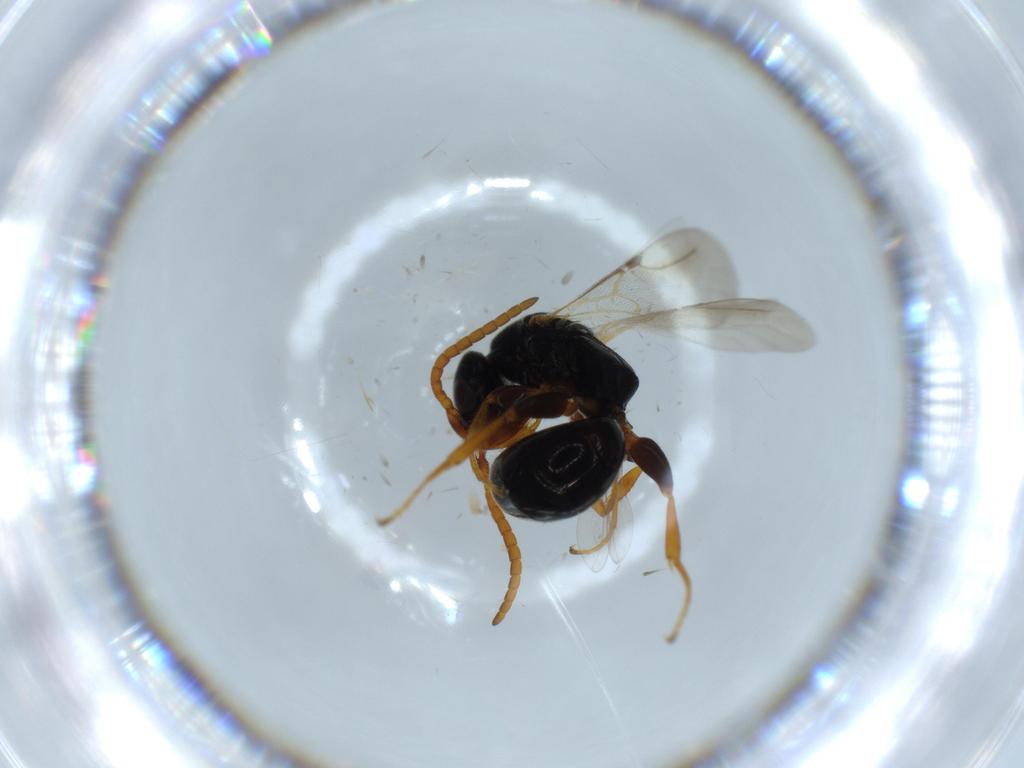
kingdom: Animalia
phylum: Arthropoda
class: Insecta
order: Hymenoptera
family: Bethylidae
